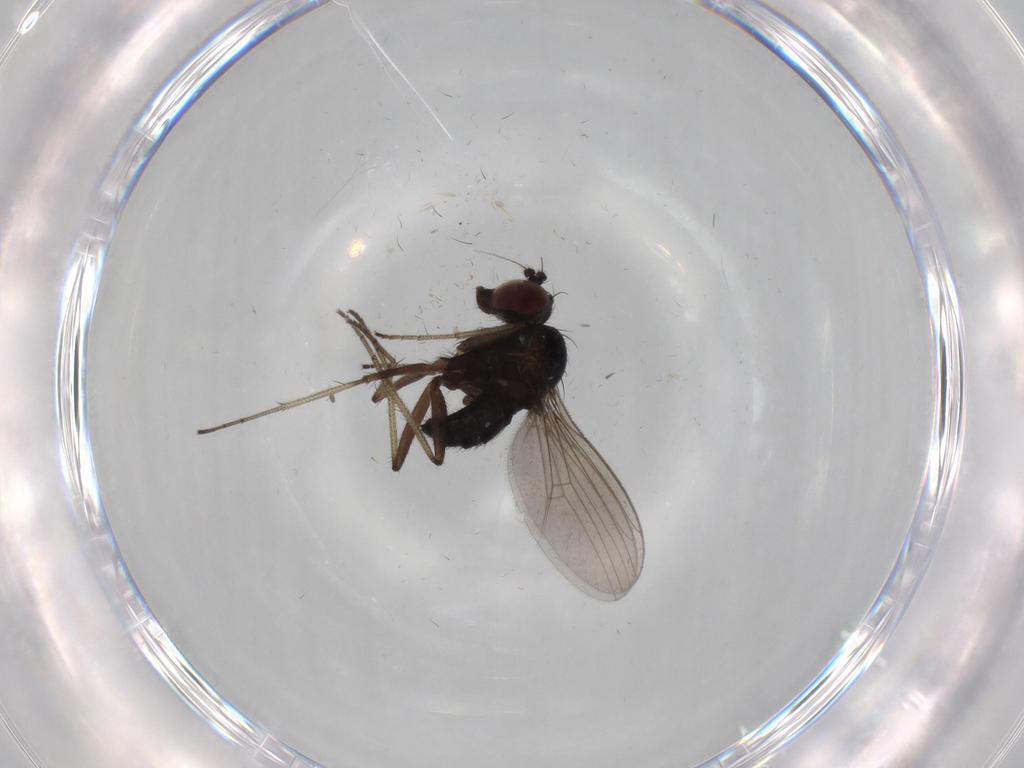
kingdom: Animalia
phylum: Arthropoda
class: Insecta
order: Diptera
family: Dolichopodidae
